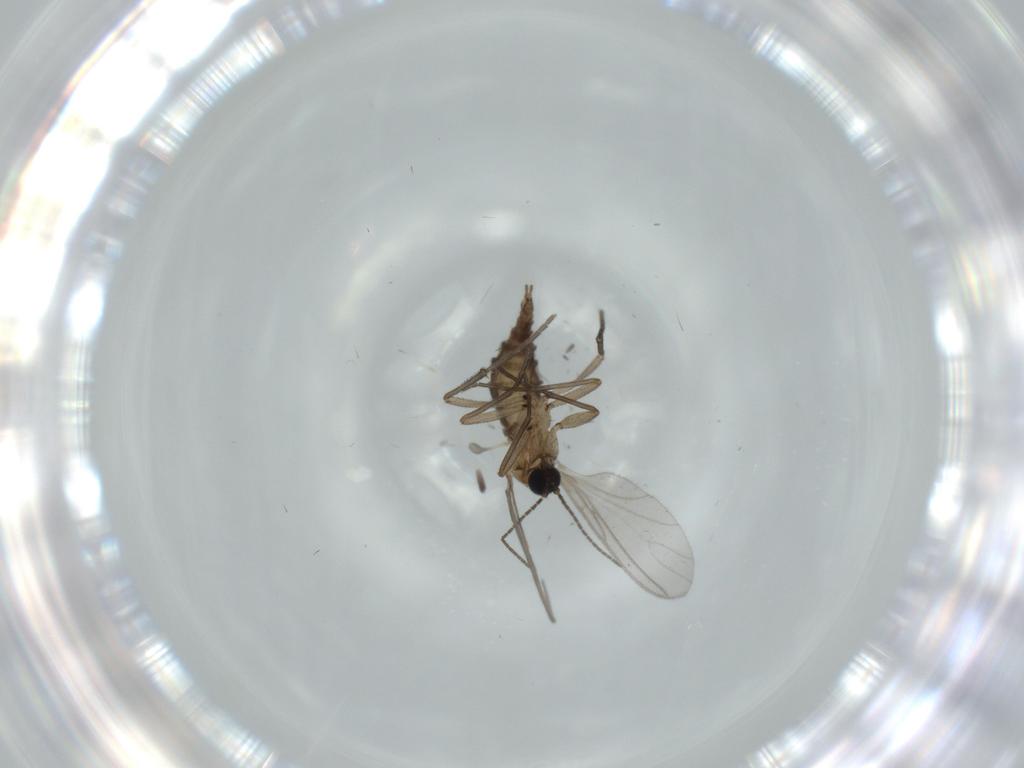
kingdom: Animalia
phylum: Arthropoda
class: Insecta
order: Diptera
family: Sciaridae
